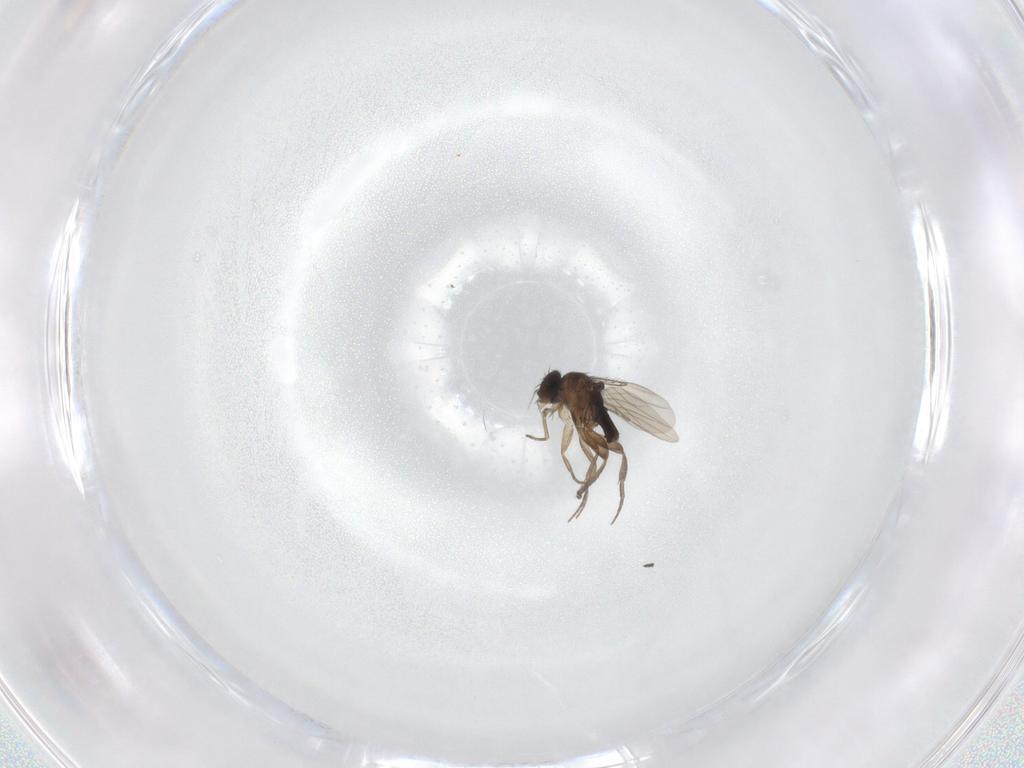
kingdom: Animalia
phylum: Arthropoda
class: Insecta
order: Diptera
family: Phoridae
